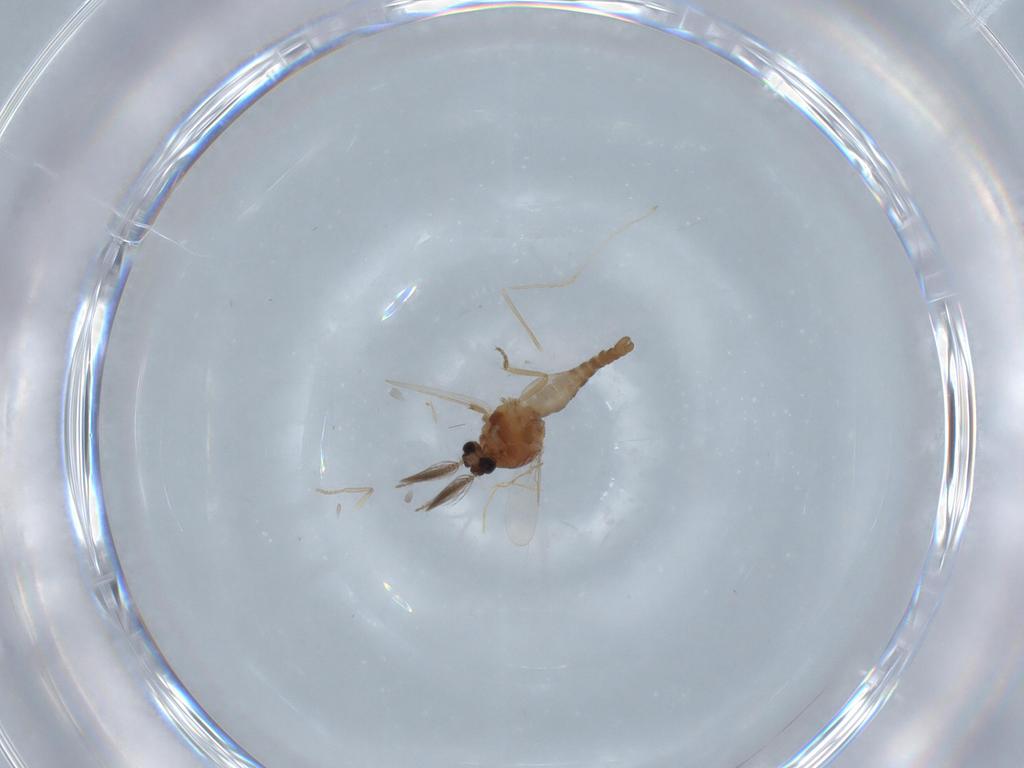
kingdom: Animalia
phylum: Arthropoda
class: Insecta
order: Diptera
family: Ceratopogonidae
